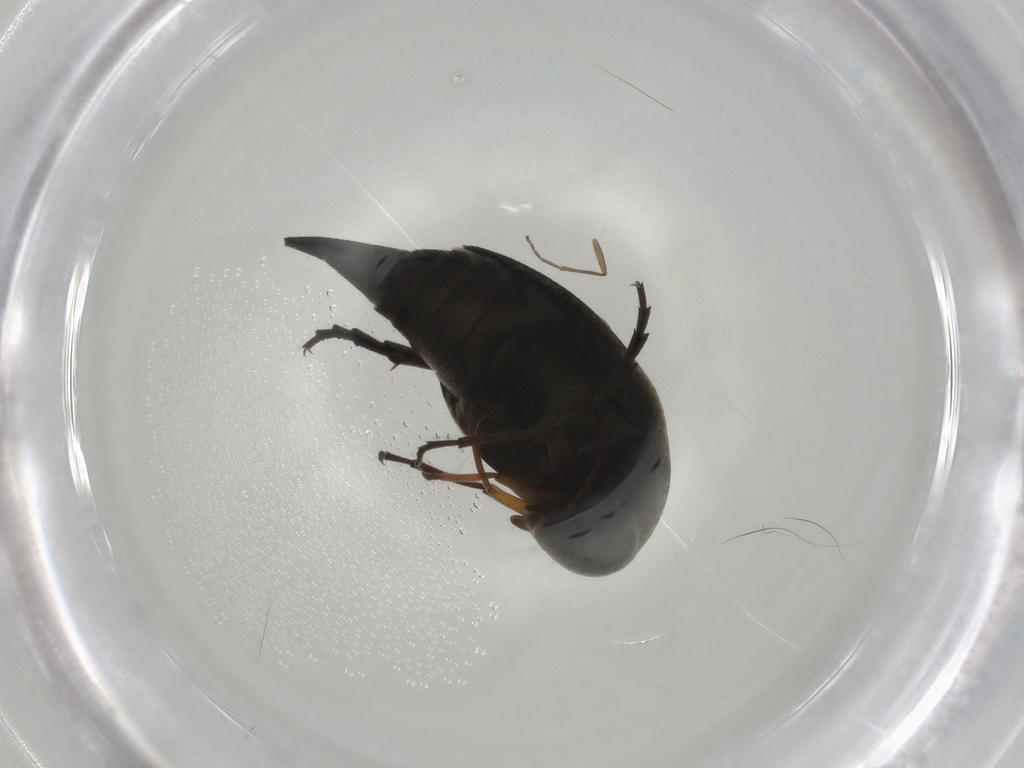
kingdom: Animalia
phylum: Arthropoda
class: Insecta
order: Coleoptera
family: Mordellidae
